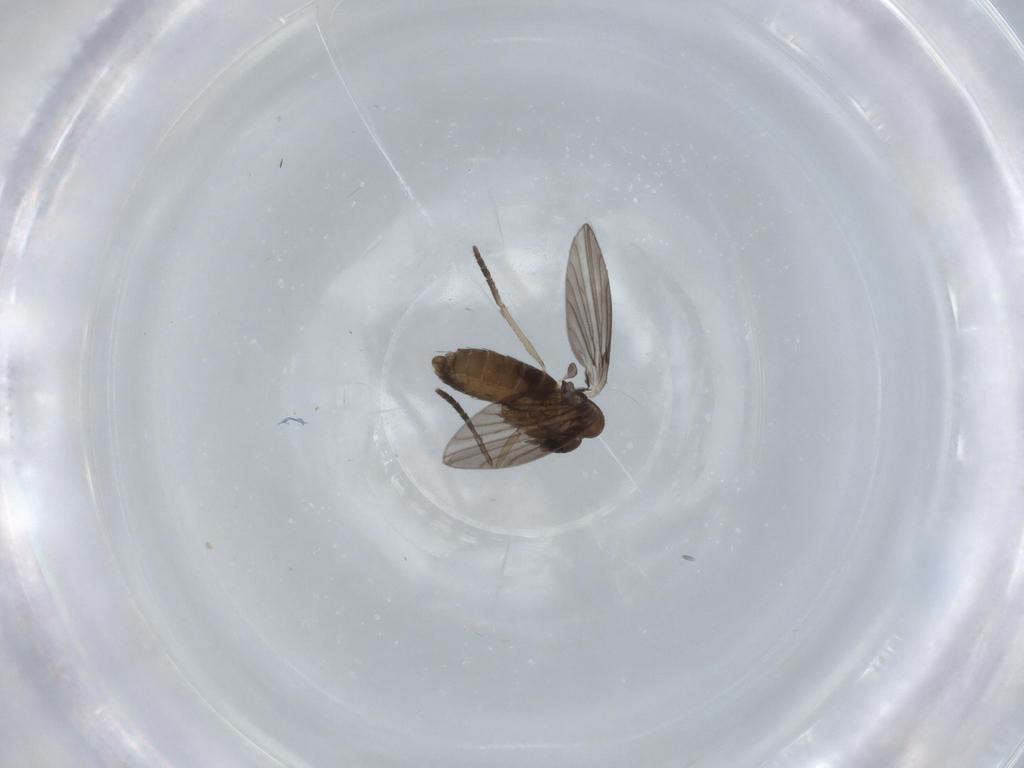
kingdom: Animalia
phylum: Arthropoda
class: Insecta
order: Diptera
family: Psychodidae
